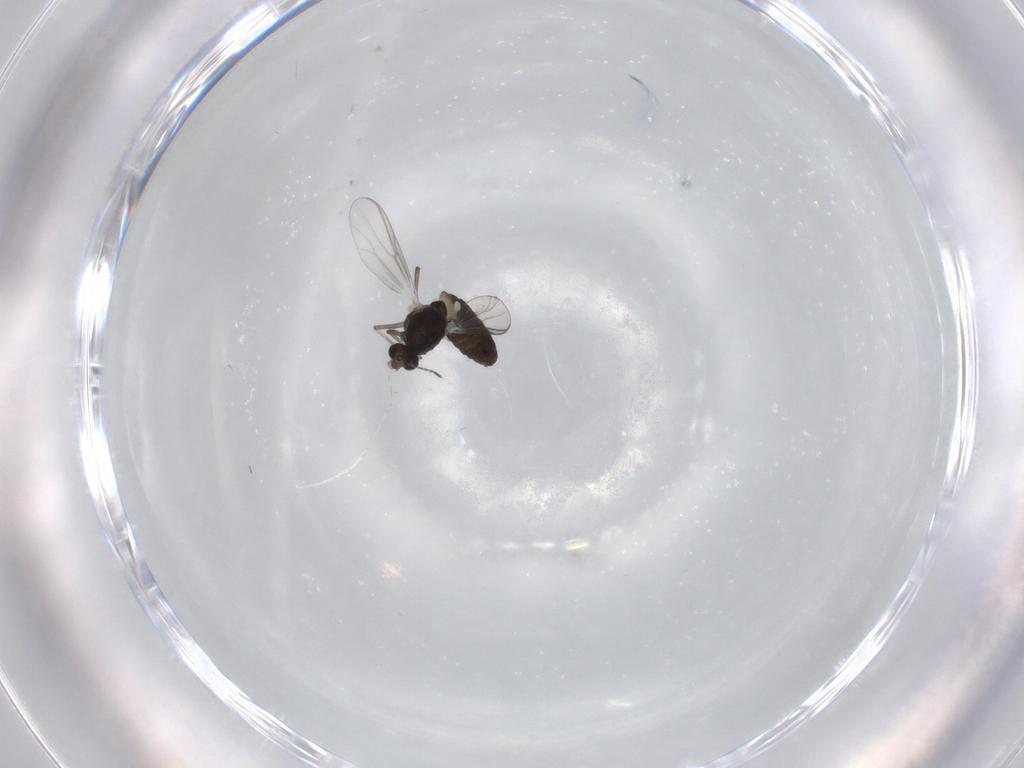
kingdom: Animalia
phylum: Arthropoda
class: Insecta
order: Diptera
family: Chironomidae
